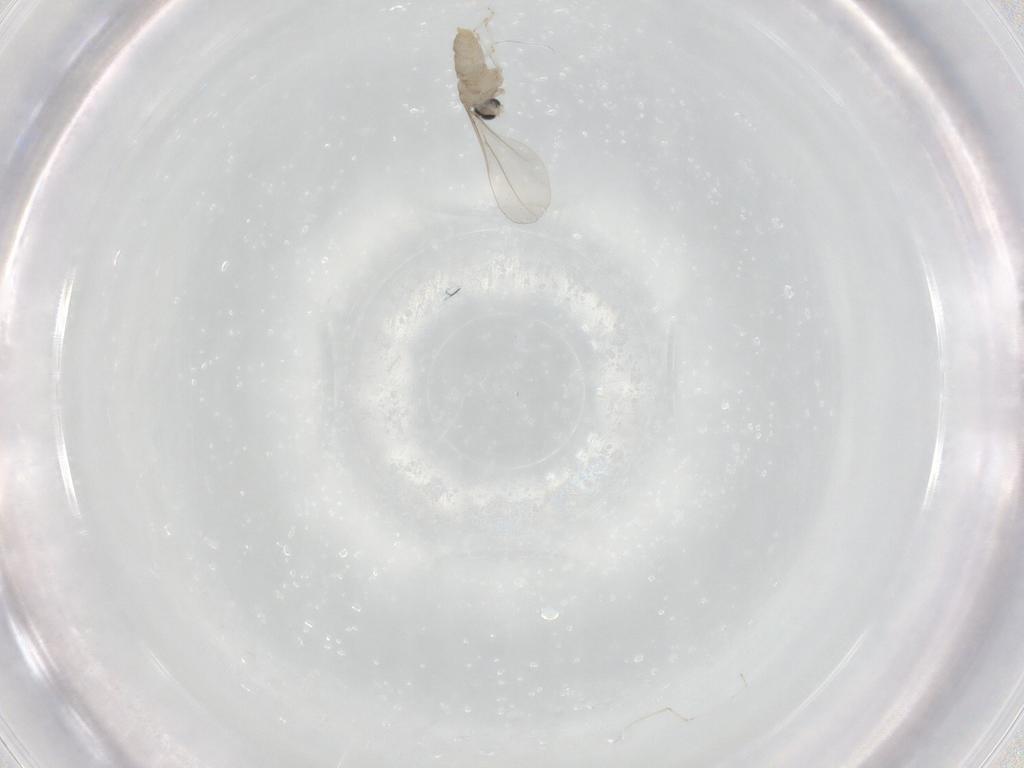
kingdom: Animalia
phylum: Arthropoda
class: Insecta
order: Diptera
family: Cecidomyiidae
